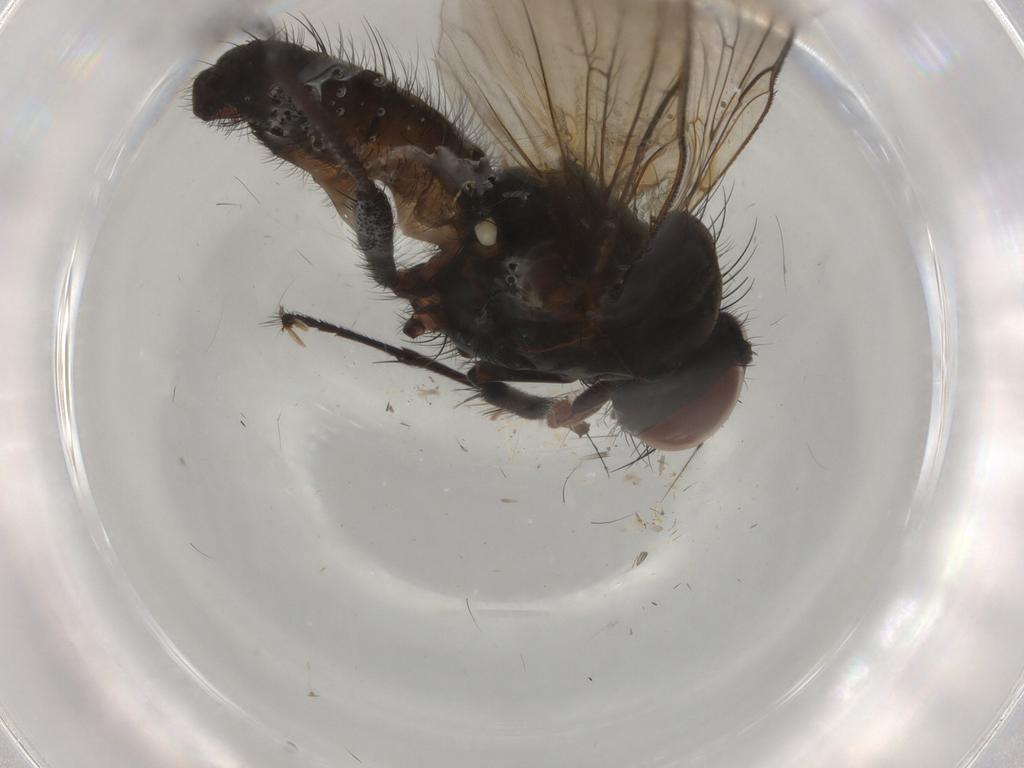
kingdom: Animalia
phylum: Arthropoda
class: Insecta
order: Diptera
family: Anthomyiidae
